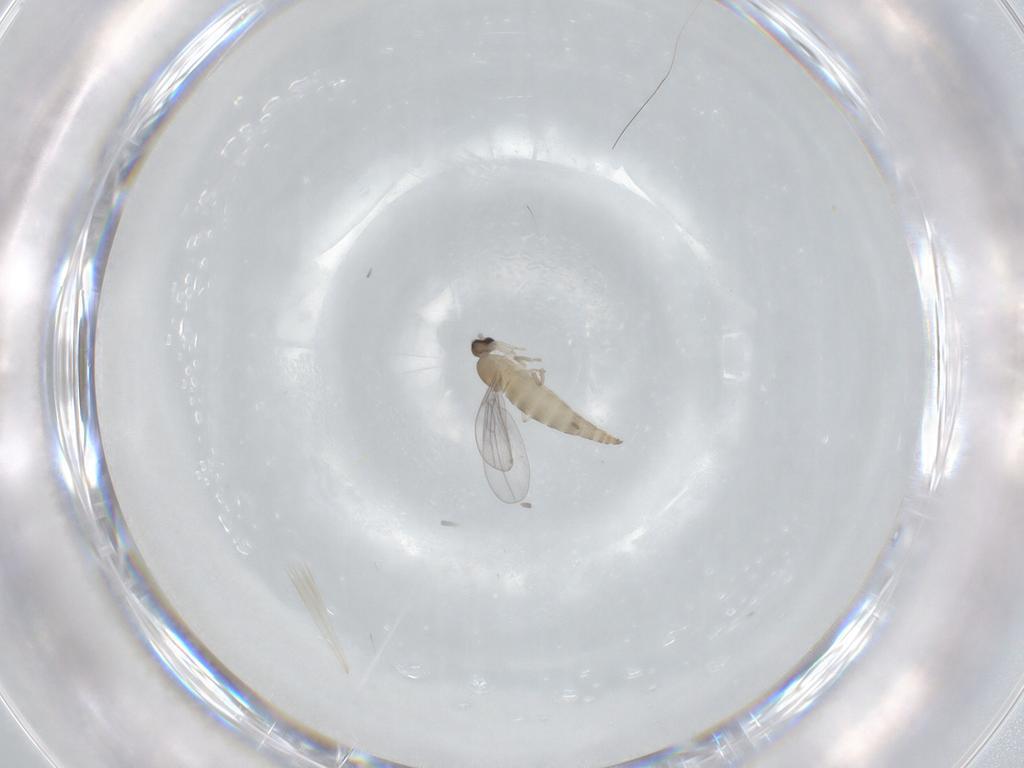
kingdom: Animalia
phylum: Arthropoda
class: Insecta
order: Diptera
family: Cecidomyiidae
